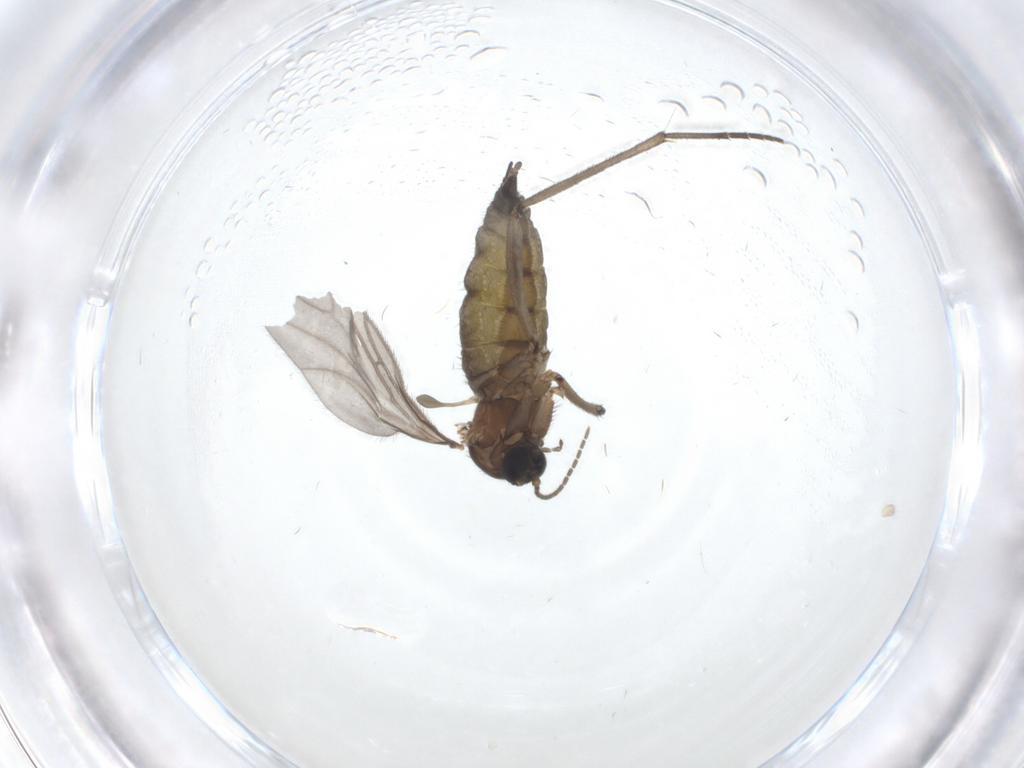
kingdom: Animalia
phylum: Arthropoda
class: Insecta
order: Diptera
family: Sciaridae
